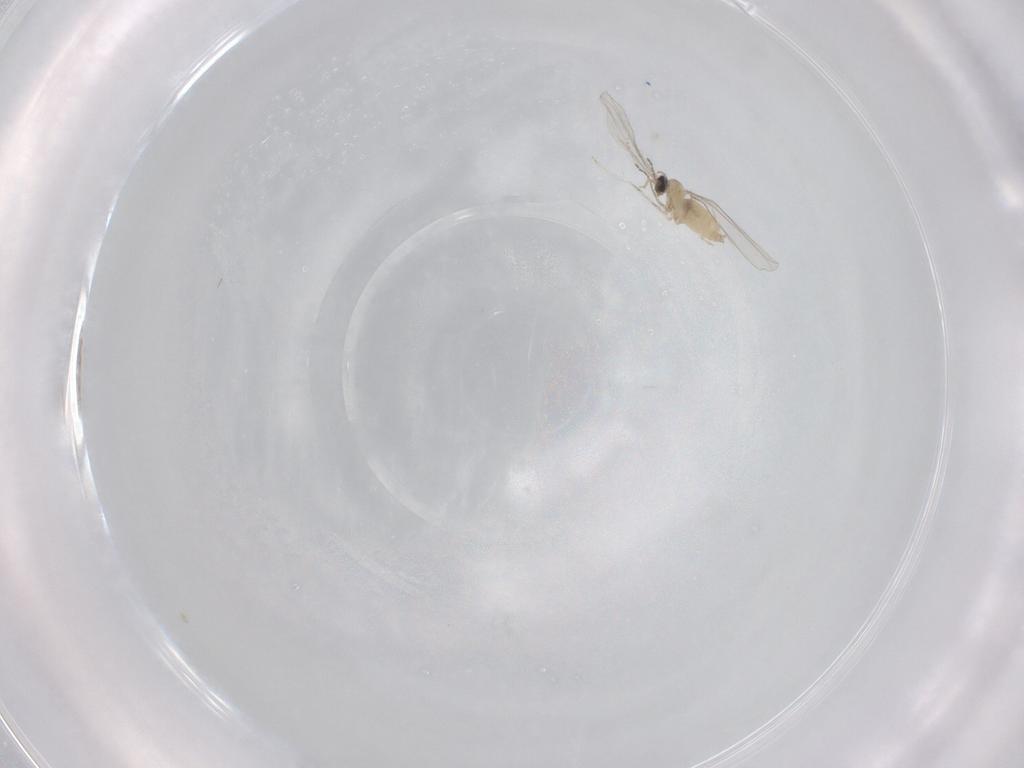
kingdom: Animalia
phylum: Arthropoda
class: Insecta
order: Diptera
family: Cecidomyiidae
